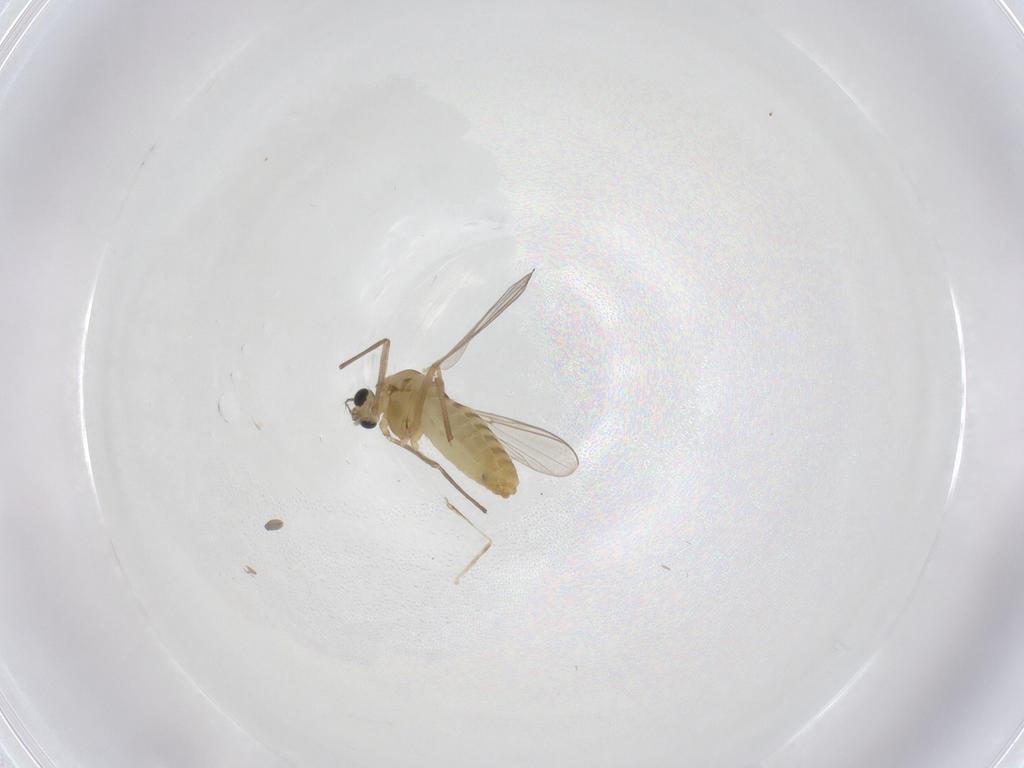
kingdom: Animalia
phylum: Arthropoda
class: Insecta
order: Diptera
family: Chironomidae
